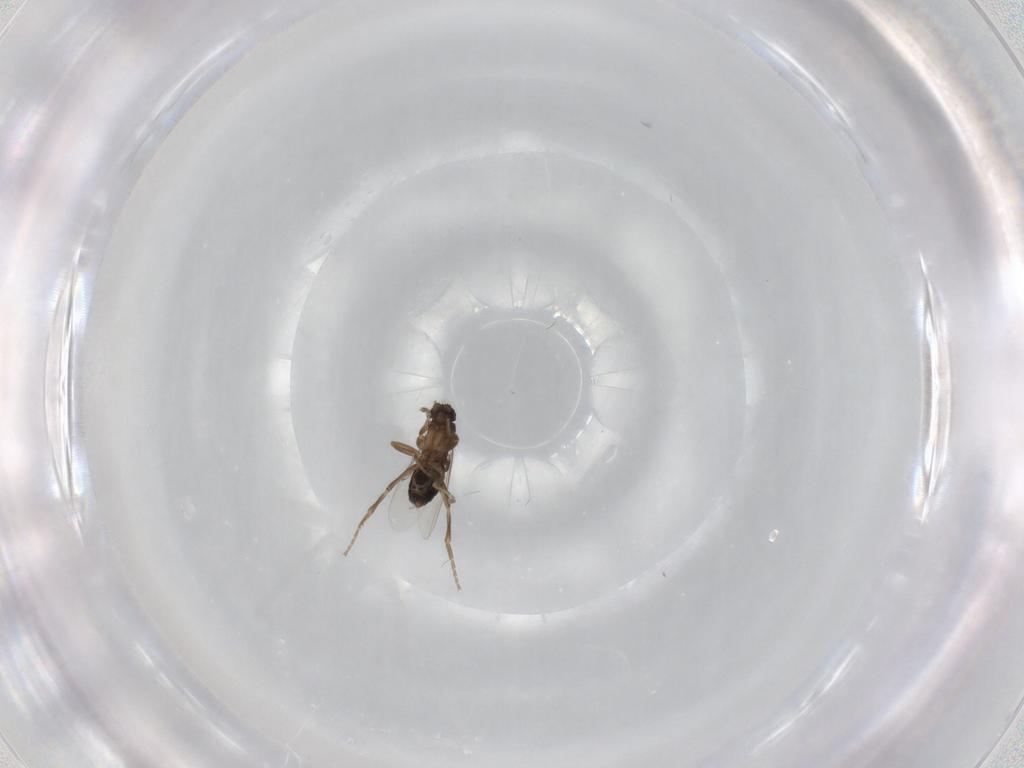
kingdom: Animalia
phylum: Arthropoda
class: Insecta
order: Diptera
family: Phoridae
